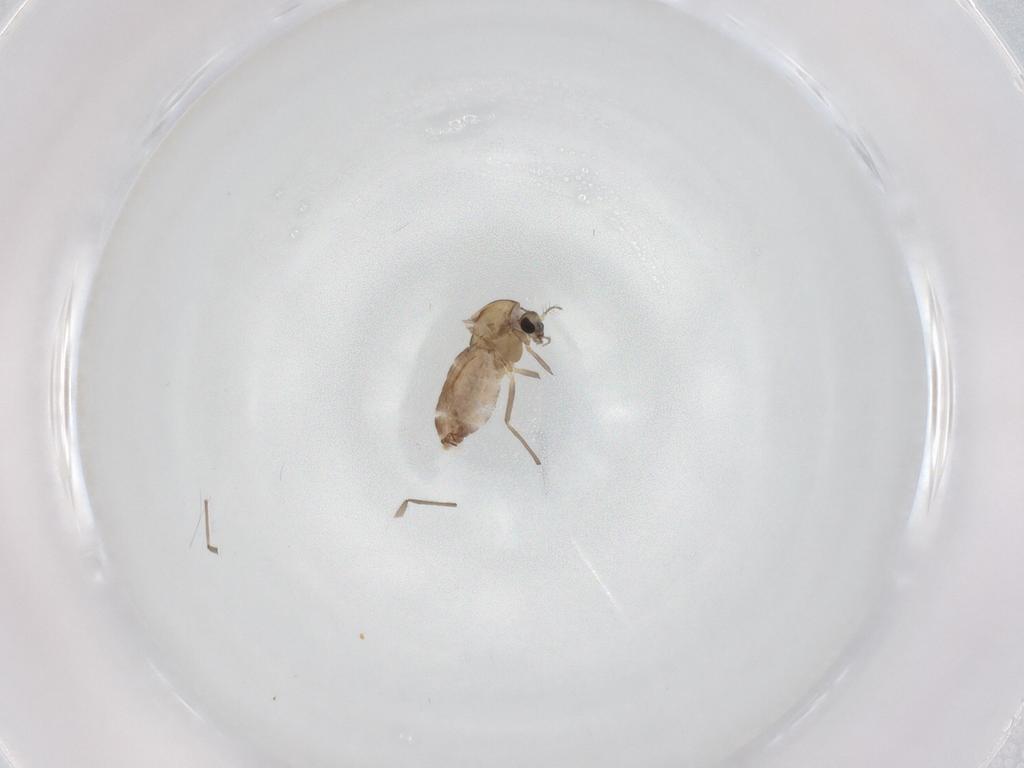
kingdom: Animalia
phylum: Arthropoda
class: Insecta
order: Diptera
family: Chironomidae
